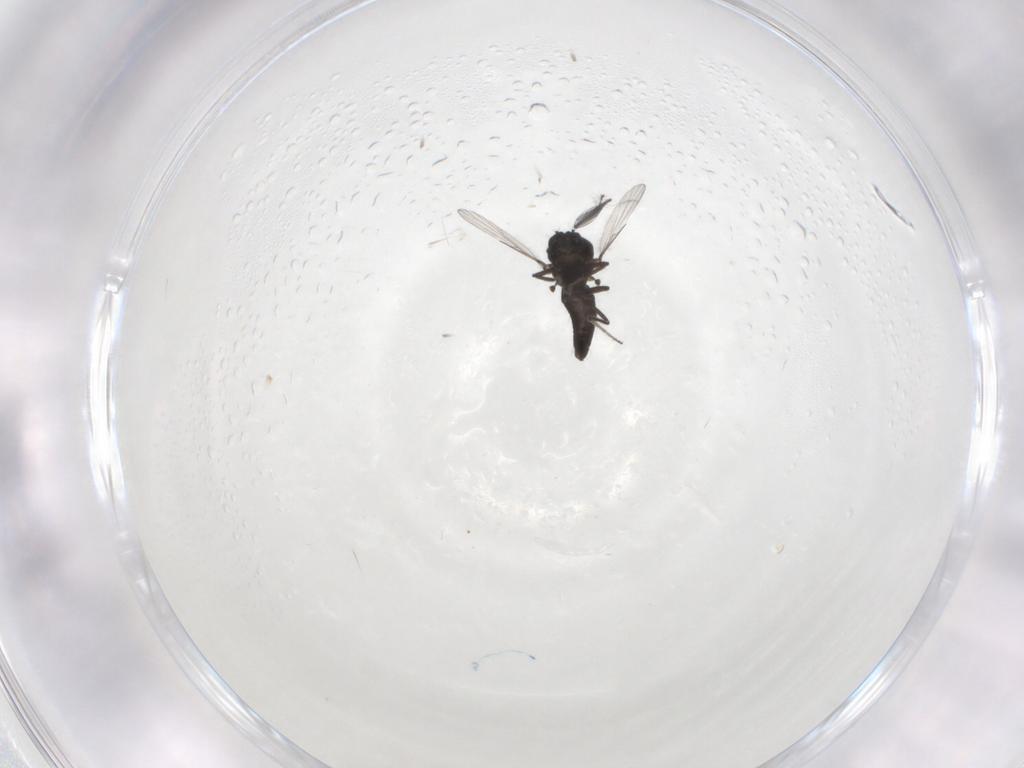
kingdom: Animalia
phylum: Arthropoda
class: Insecta
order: Diptera
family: Ceratopogonidae
